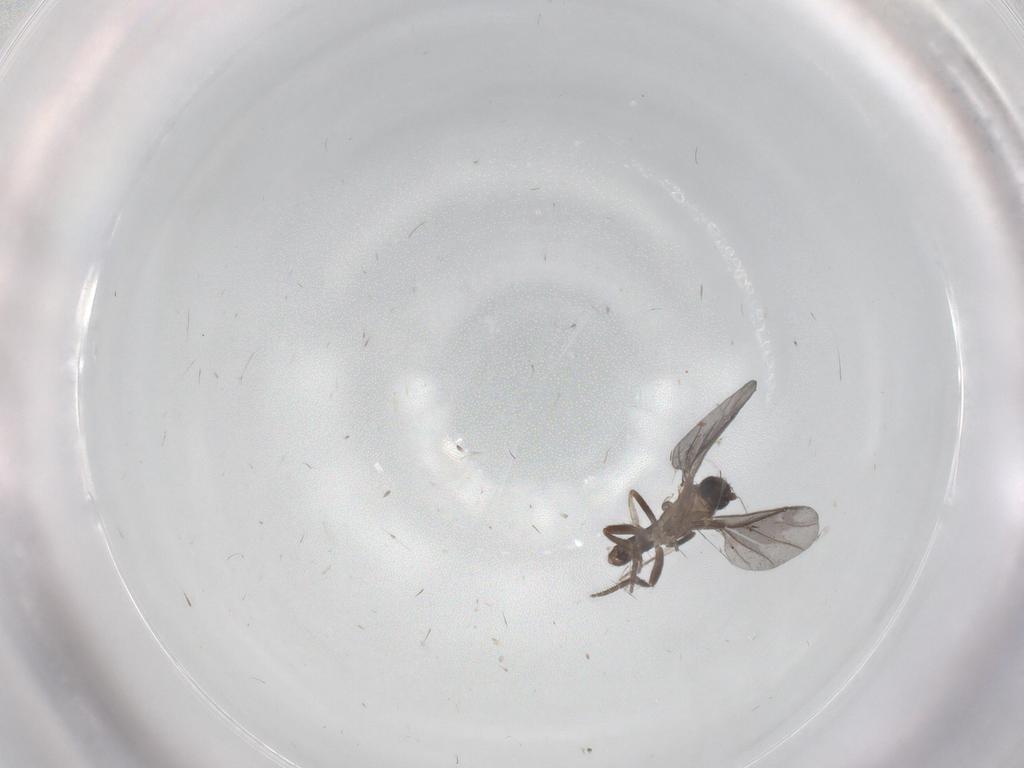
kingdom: Animalia
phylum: Arthropoda
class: Insecta
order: Diptera
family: Phoridae
